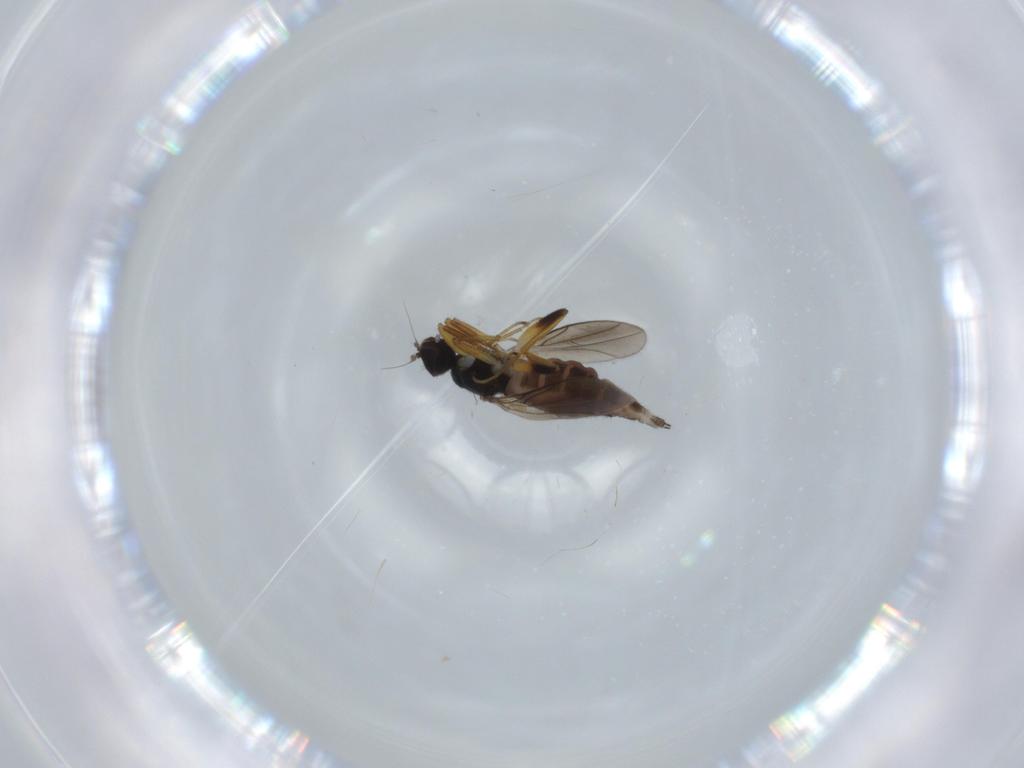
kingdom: Animalia
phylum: Arthropoda
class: Insecta
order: Diptera
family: Hybotidae
